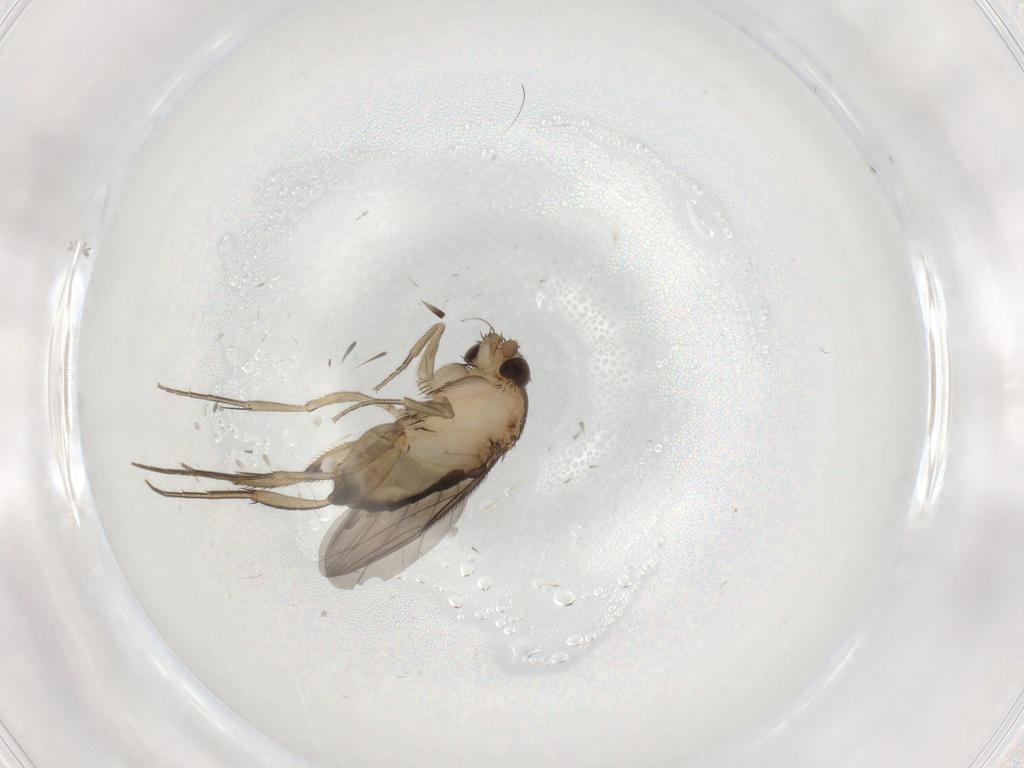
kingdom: Animalia
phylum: Arthropoda
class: Insecta
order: Diptera
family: Phoridae
